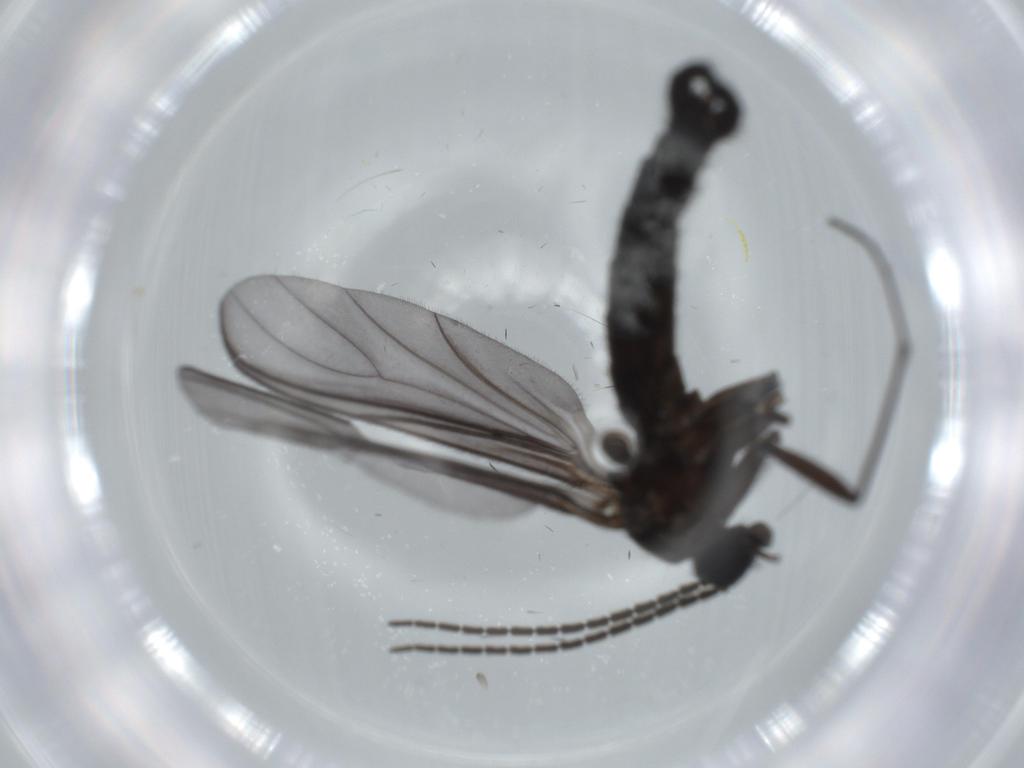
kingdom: Animalia
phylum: Arthropoda
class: Insecta
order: Diptera
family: Sciaridae
